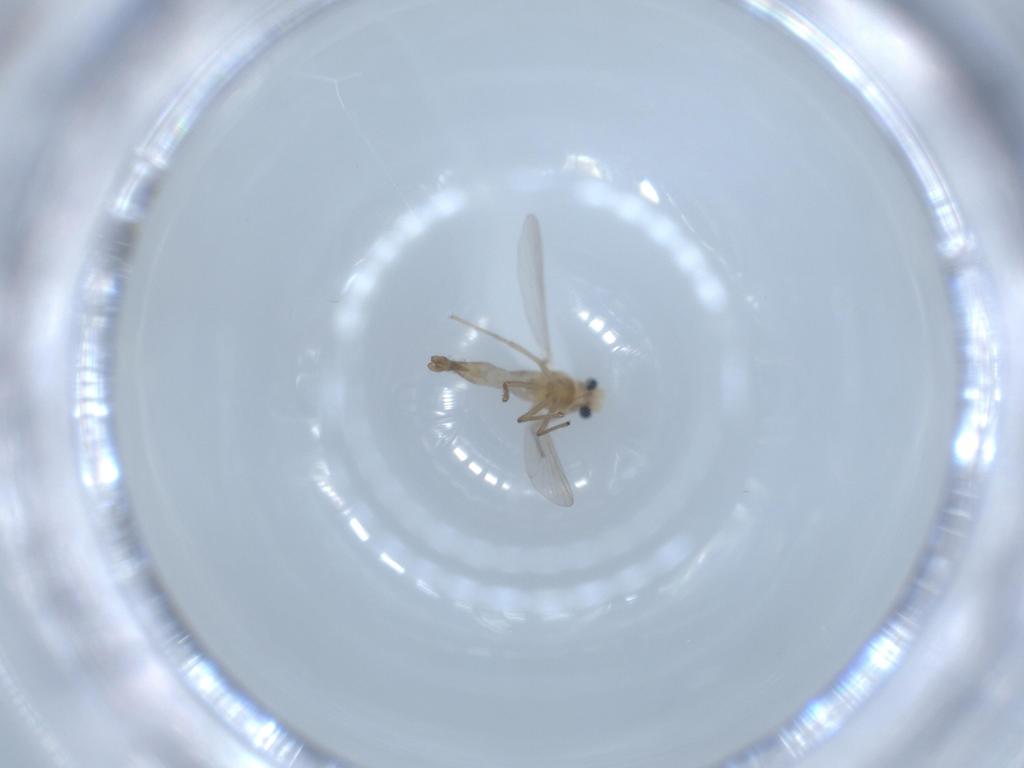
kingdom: Animalia
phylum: Arthropoda
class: Insecta
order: Diptera
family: Chironomidae
